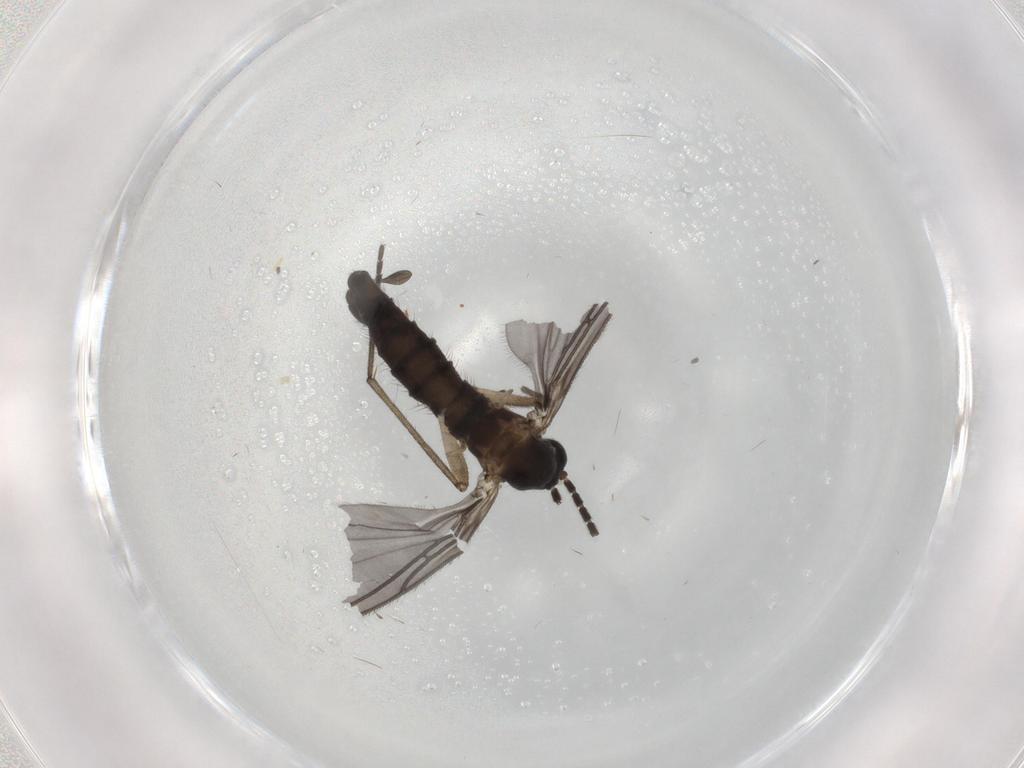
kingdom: Animalia
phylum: Arthropoda
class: Insecta
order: Diptera
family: Sciaridae
